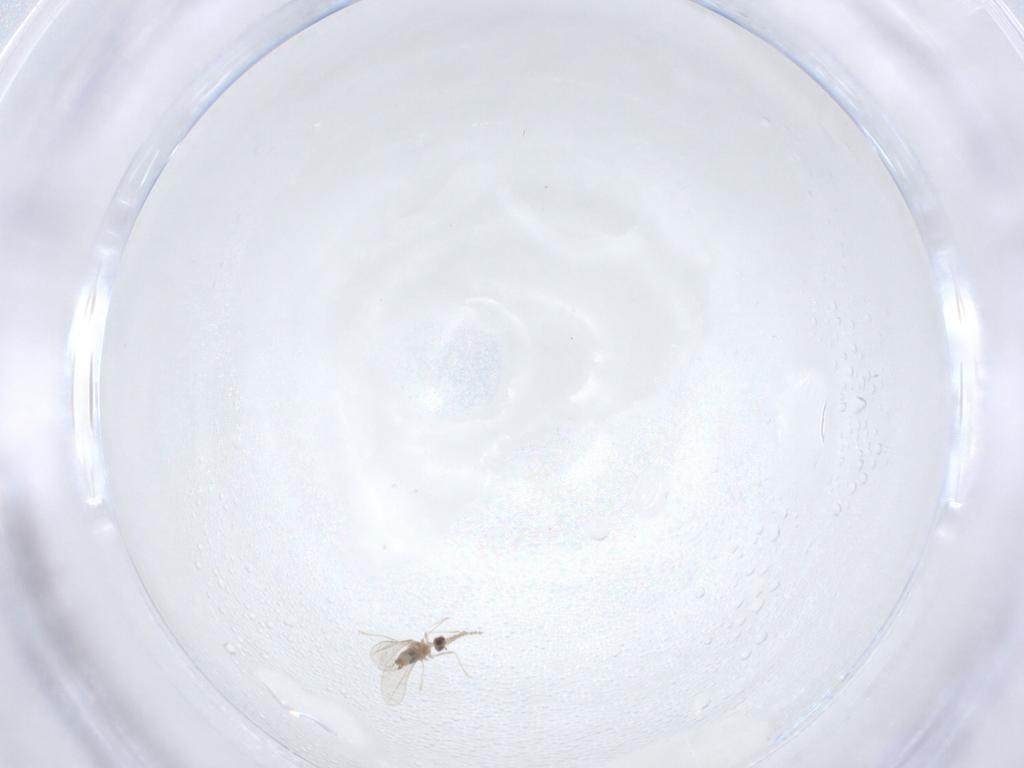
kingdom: Animalia
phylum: Arthropoda
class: Insecta
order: Diptera
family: Cecidomyiidae
